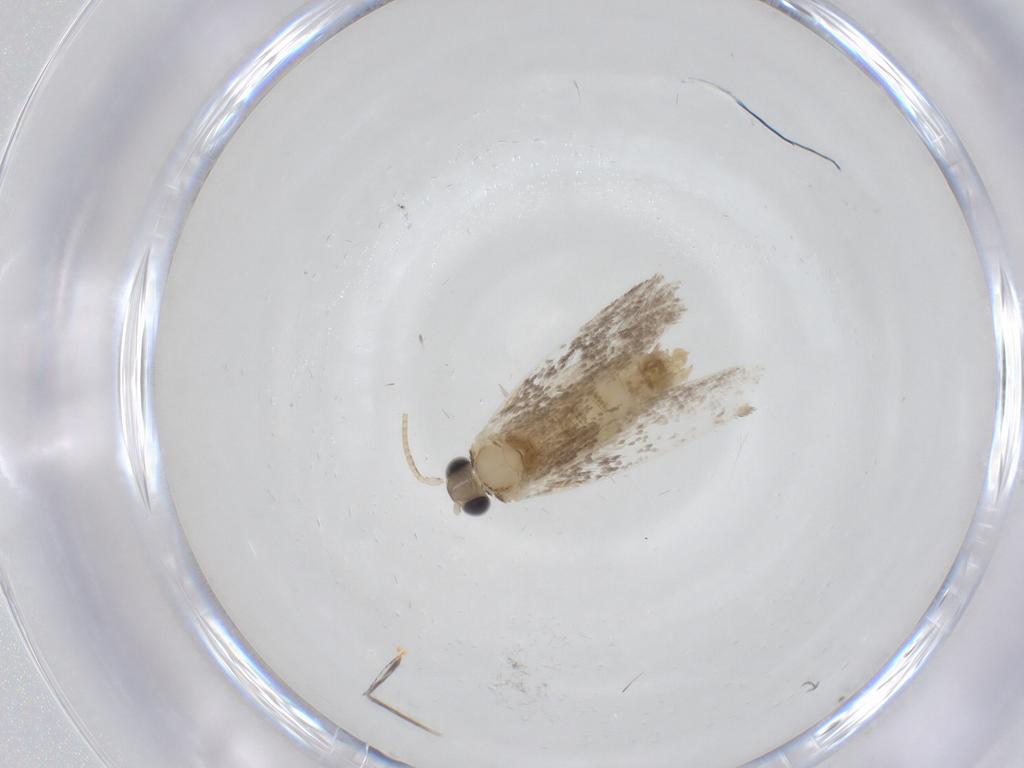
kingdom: Animalia
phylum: Arthropoda
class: Insecta
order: Lepidoptera
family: Dryadaulidae
